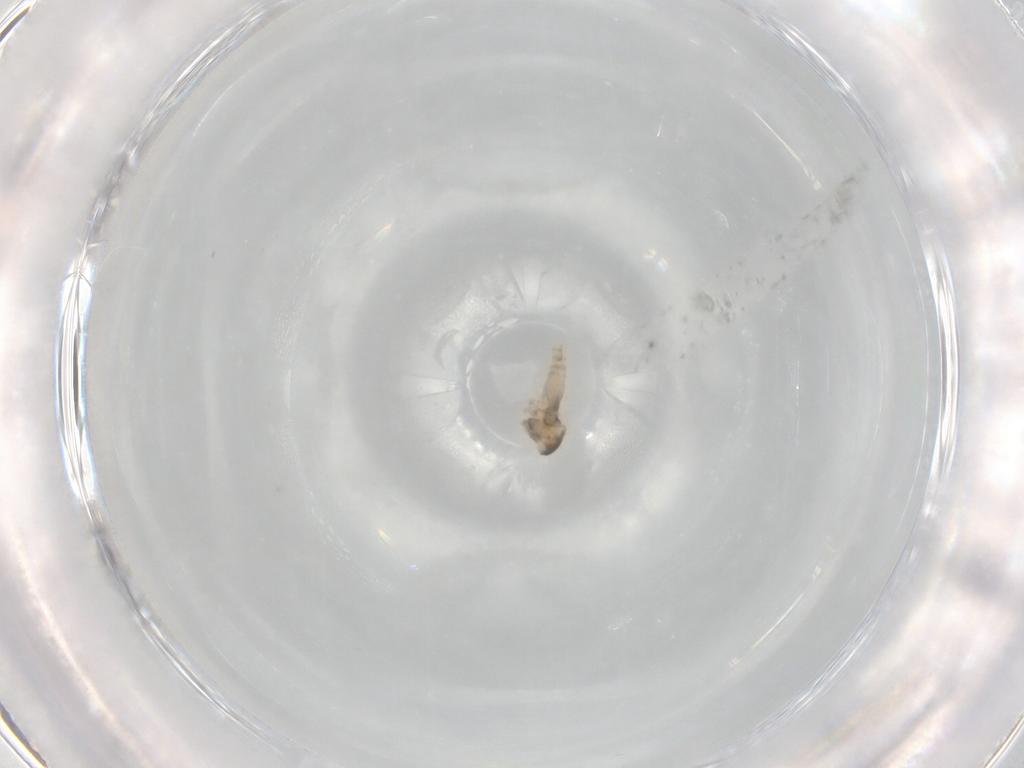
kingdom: Animalia
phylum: Arthropoda
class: Insecta
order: Diptera
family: Cecidomyiidae
